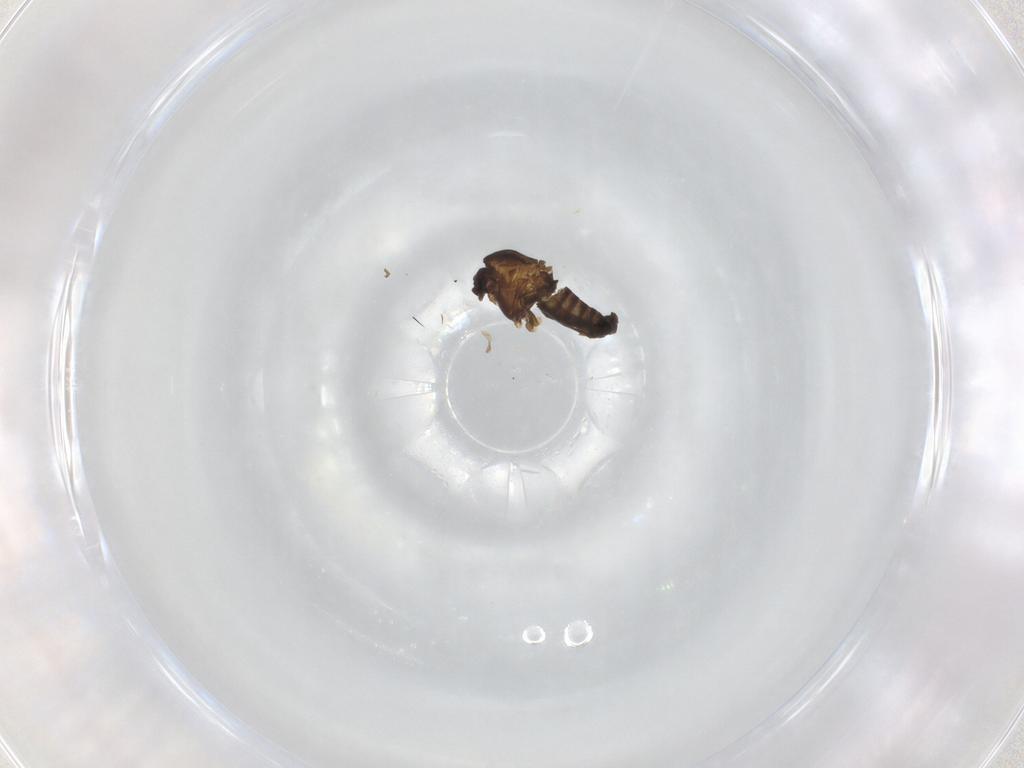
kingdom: Animalia
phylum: Arthropoda
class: Insecta
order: Diptera
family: Chironomidae
